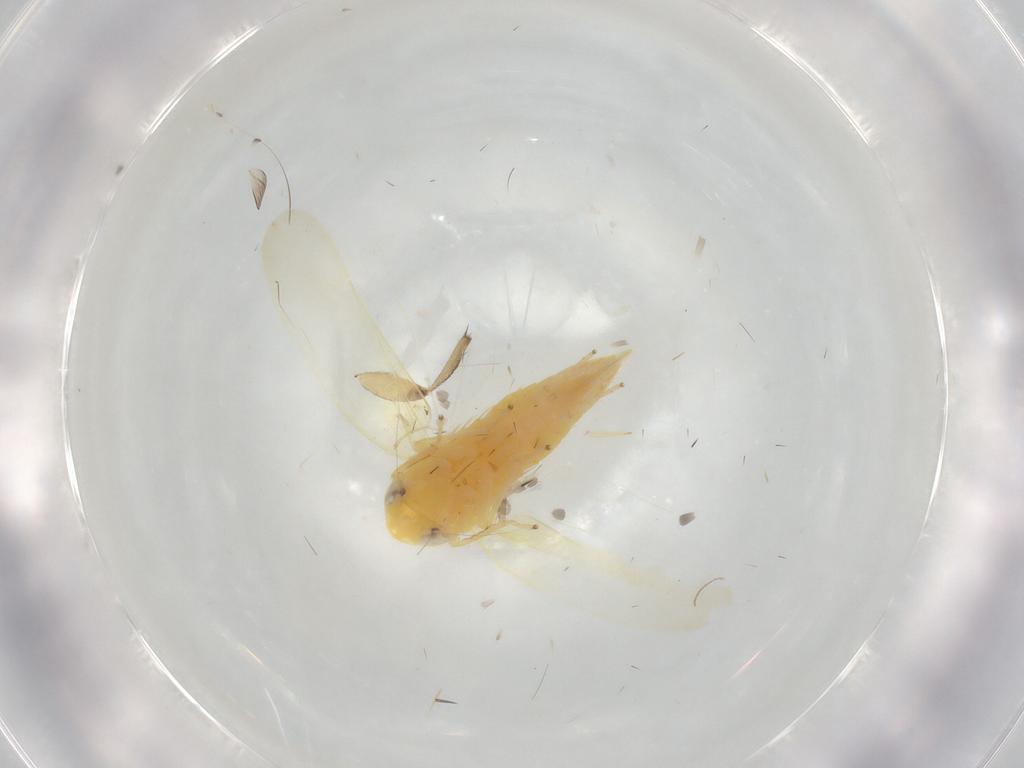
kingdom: Animalia
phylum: Arthropoda
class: Insecta
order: Hemiptera
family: Cicadellidae
